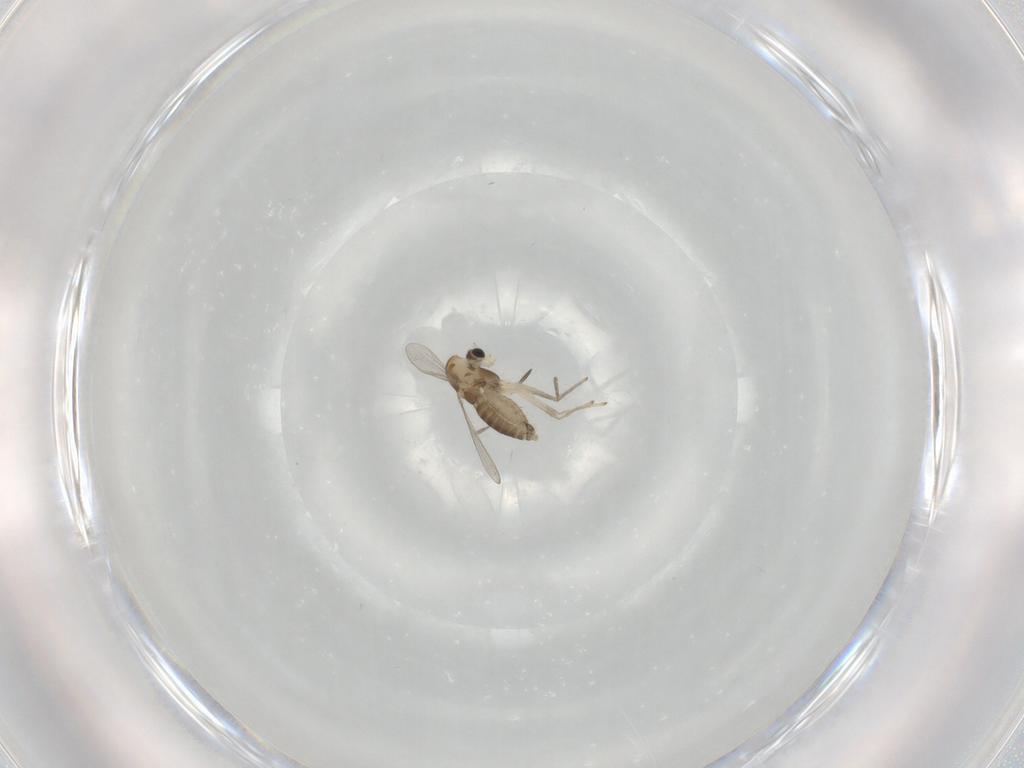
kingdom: Animalia
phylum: Arthropoda
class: Insecta
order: Diptera
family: Chironomidae
